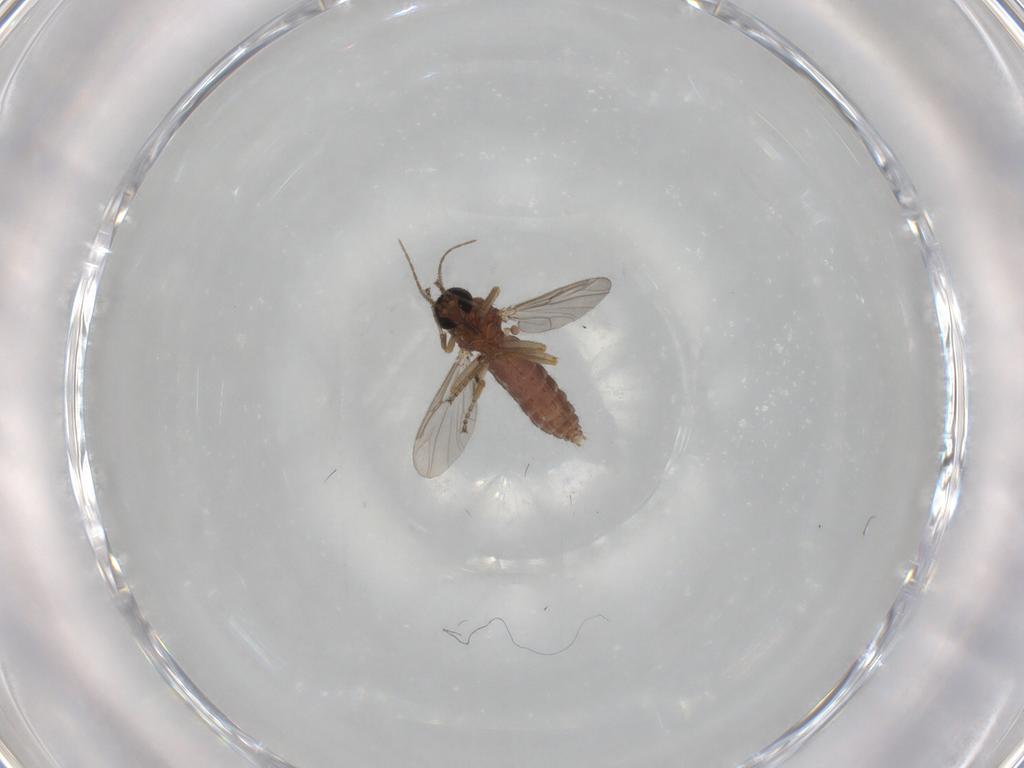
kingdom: Animalia
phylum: Arthropoda
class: Insecta
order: Diptera
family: Ceratopogonidae
